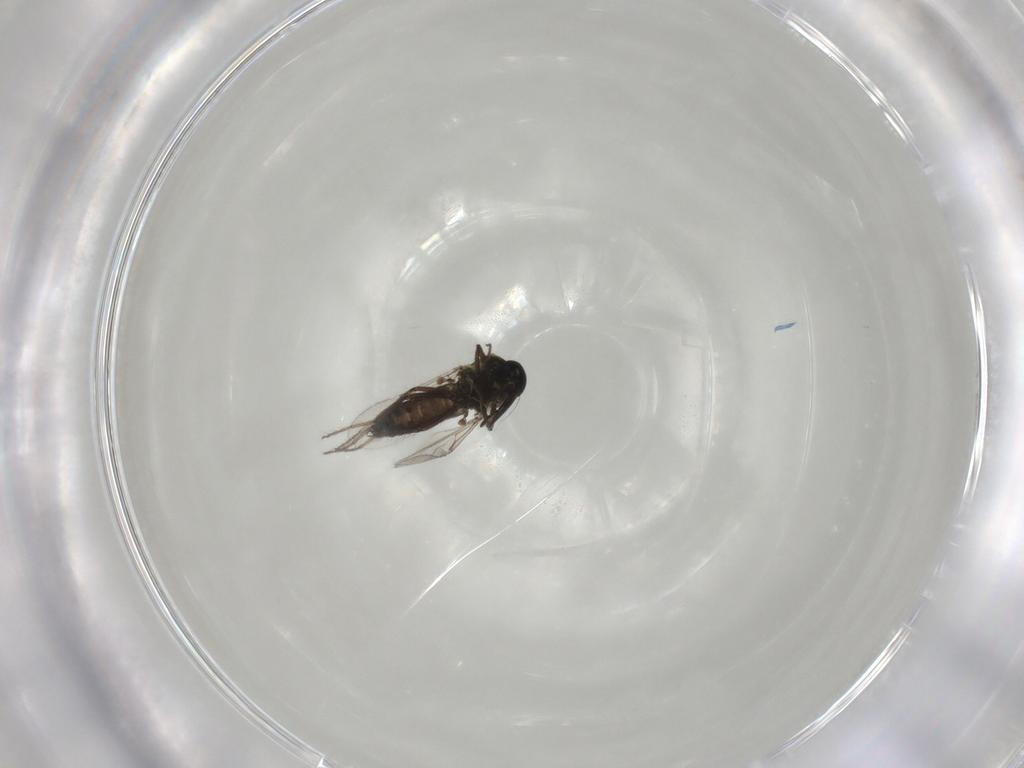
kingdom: Animalia
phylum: Arthropoda
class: Insecta
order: Diptera
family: Ceratopogonidae
